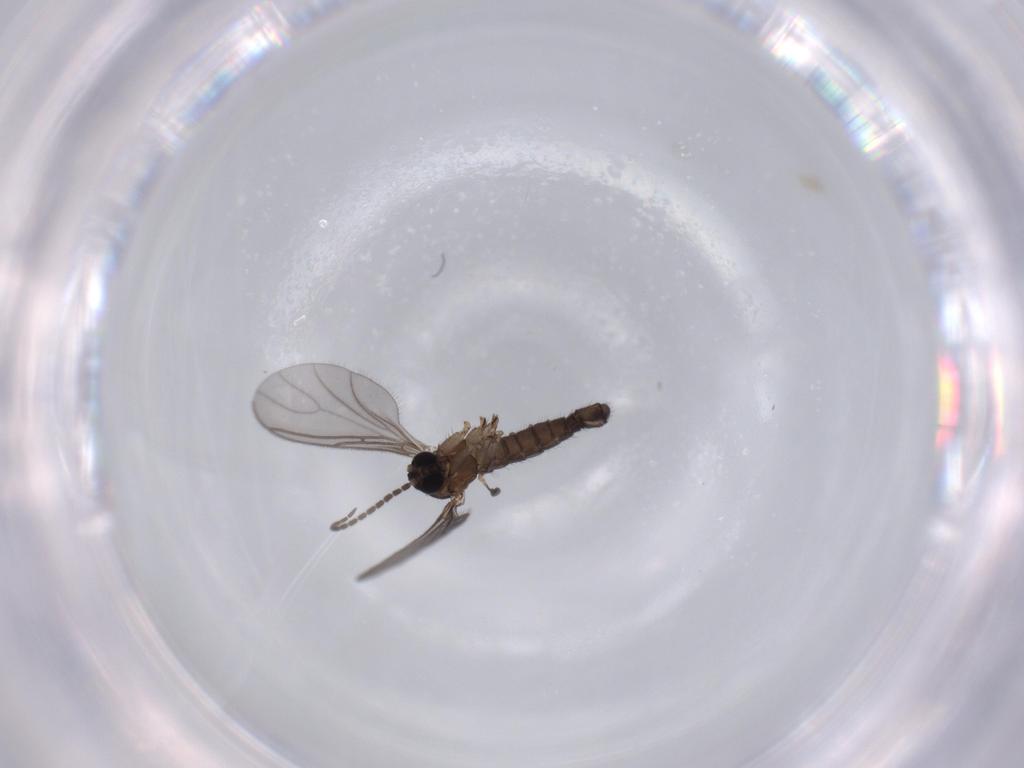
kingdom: Animalia
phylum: Arthropoda
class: Insecta
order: Diptera
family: Sciaridae
